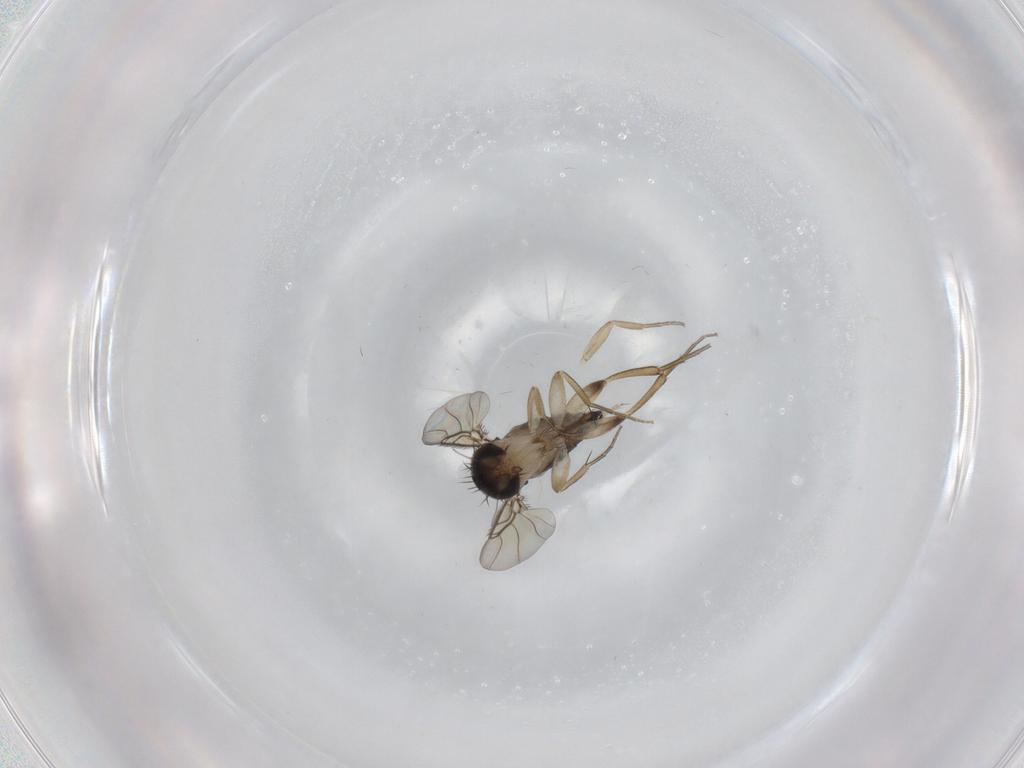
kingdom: Animalia
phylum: Arthropoda
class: Insecta
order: Diptera
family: Phoridae
